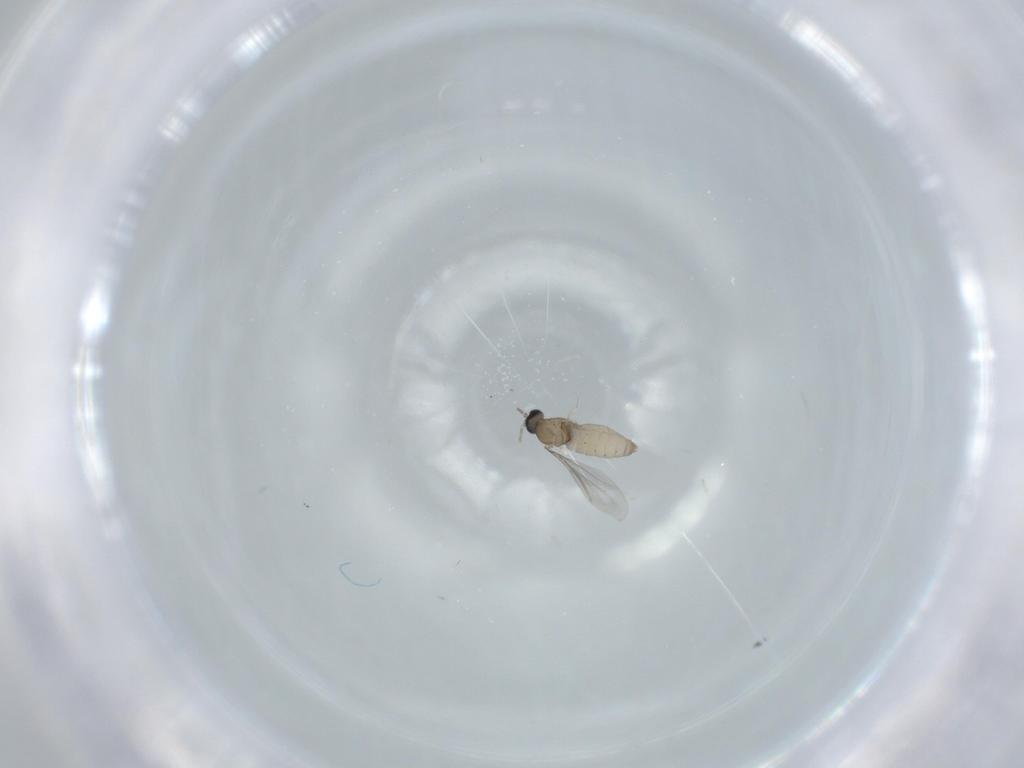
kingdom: Animalia
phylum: Arthropoda
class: Insecta
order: Diptera
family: Cecidomyiidae
